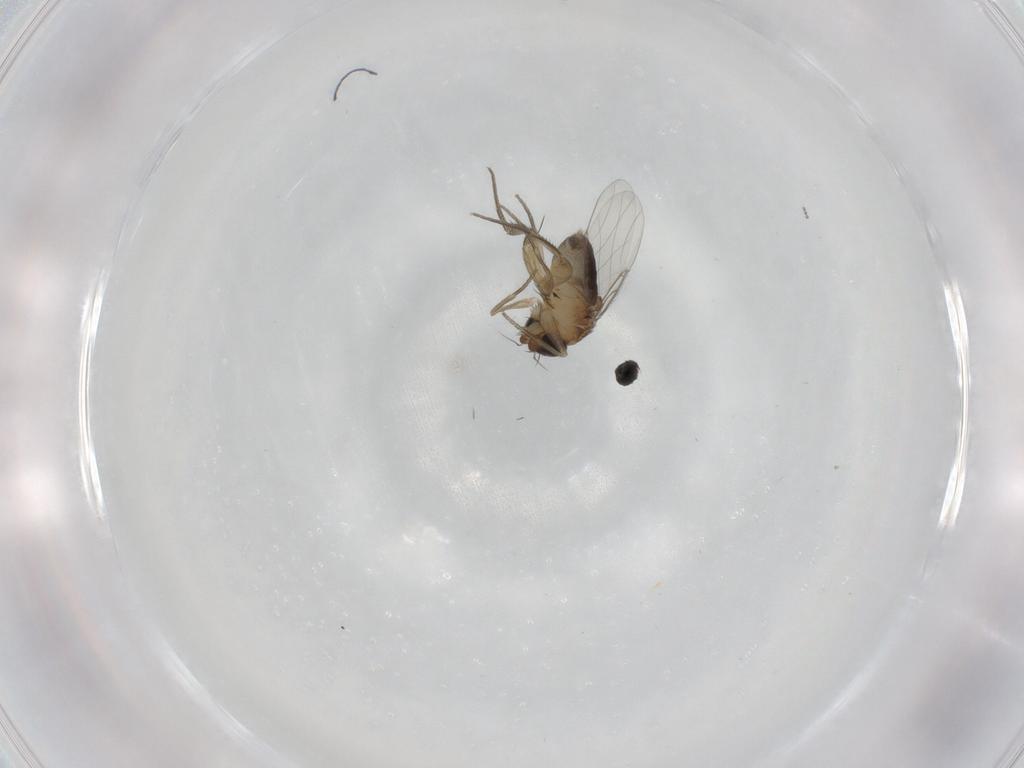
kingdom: Animalia
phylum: Arthropoda
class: Insecta
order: Diptera
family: Phoridae
